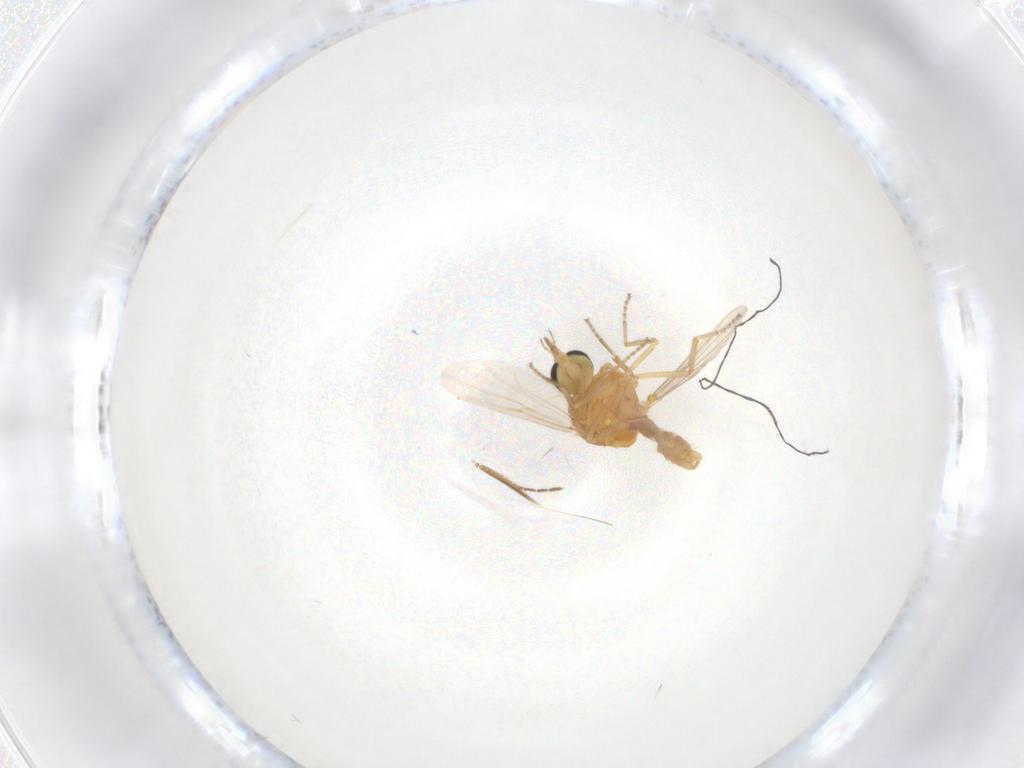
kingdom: Animalia
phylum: Arthropoda
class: Insecta
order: Diptera
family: Ceratopogonidae
